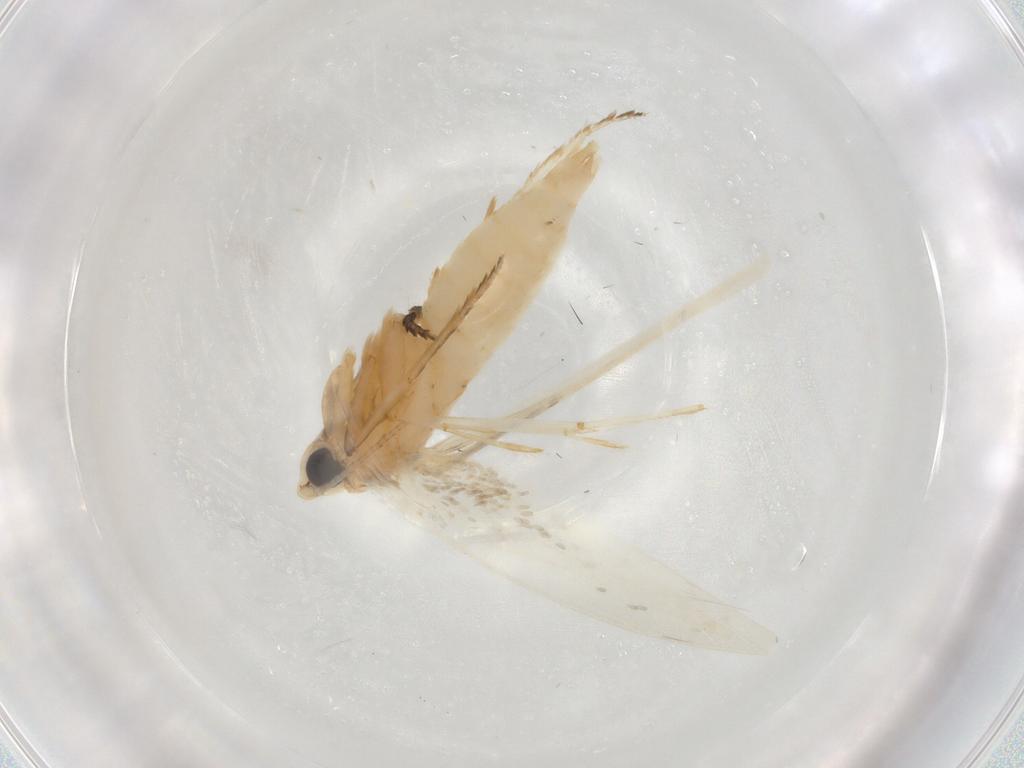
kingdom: Animalia
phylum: Arthropoda
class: Insecta
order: Lepidoptera
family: Tineidae
